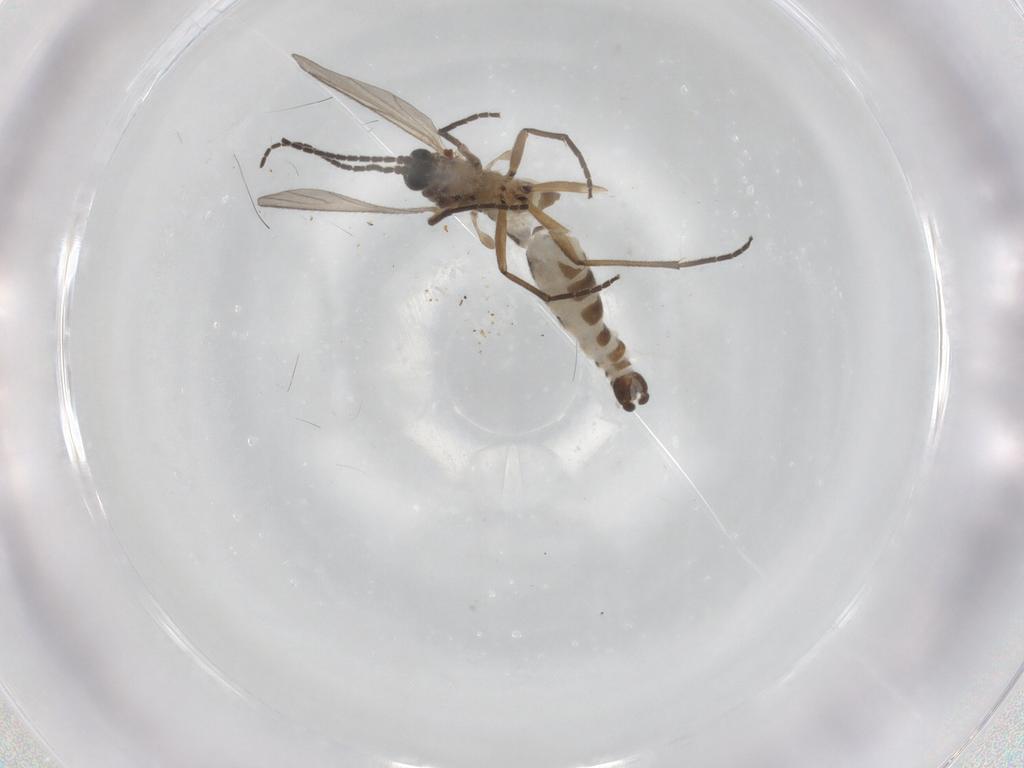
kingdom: Animalia
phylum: Arthropoda
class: Insecta
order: Diptera
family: Sciaridae
